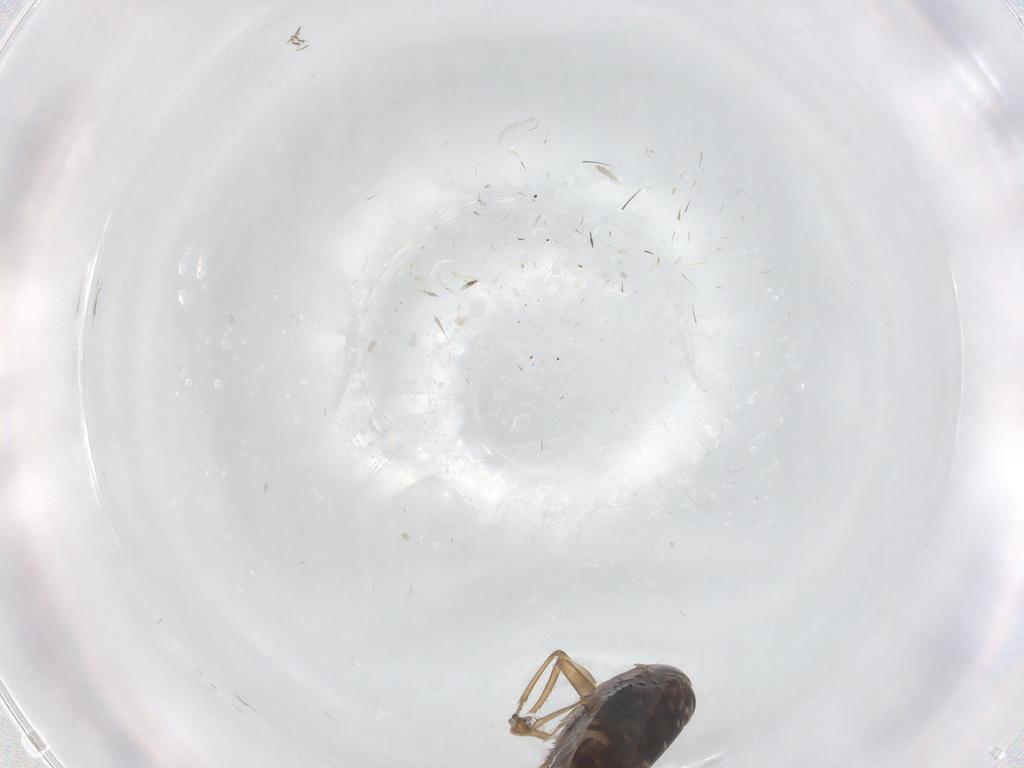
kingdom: Animalia
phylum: Arthropoda
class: Insecta
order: Hemiptera
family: Cicadellidae
